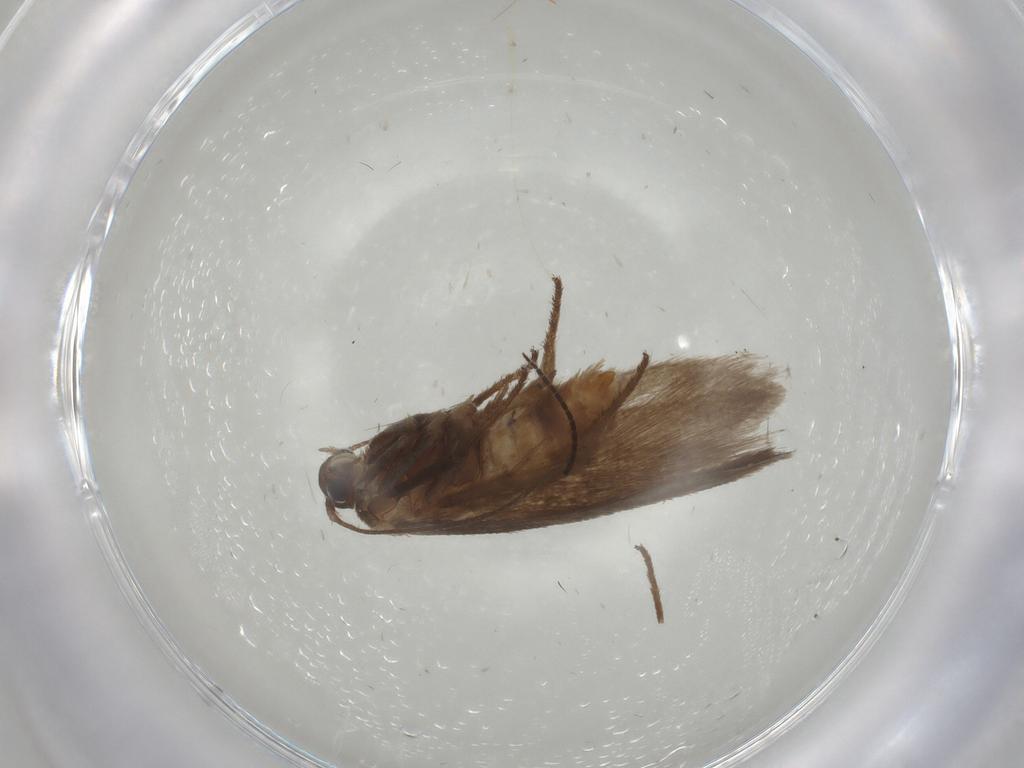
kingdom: Animalia
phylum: Arthropoda
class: Insecta
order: Lepidoptera
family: Limacodidae
